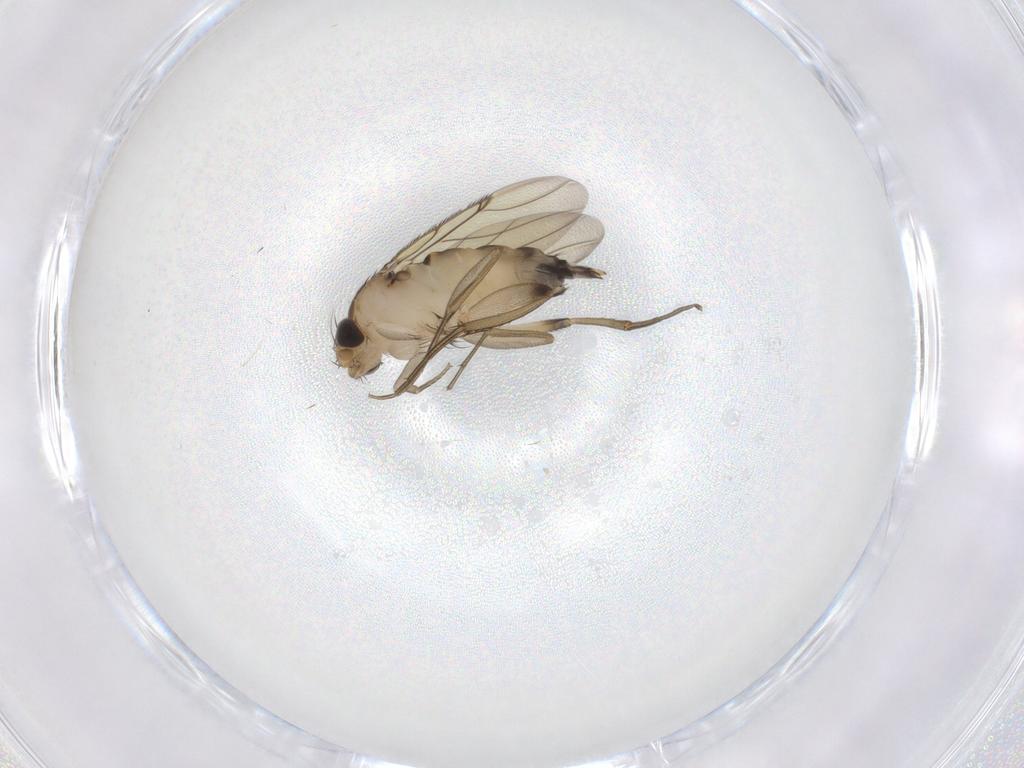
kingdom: Animalia
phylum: Arthropoda
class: Insecta
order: Diptera
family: Phoridae
